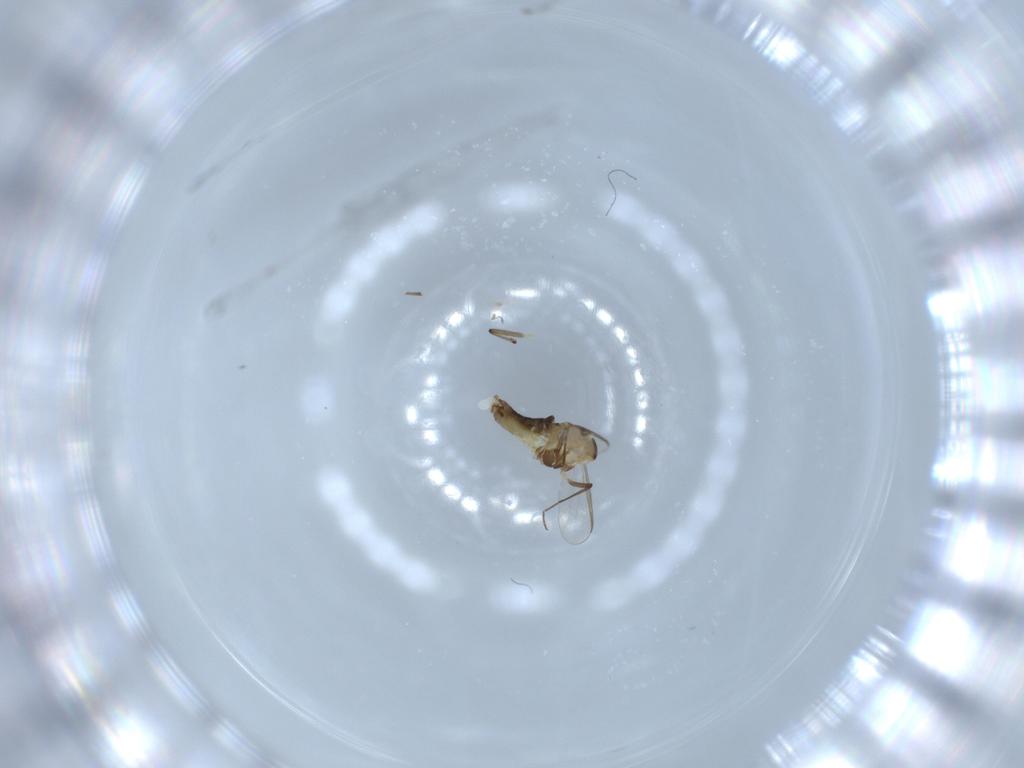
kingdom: Animalia
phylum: Arthropoda
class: Insecta
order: Diptera
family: Chironomidae
